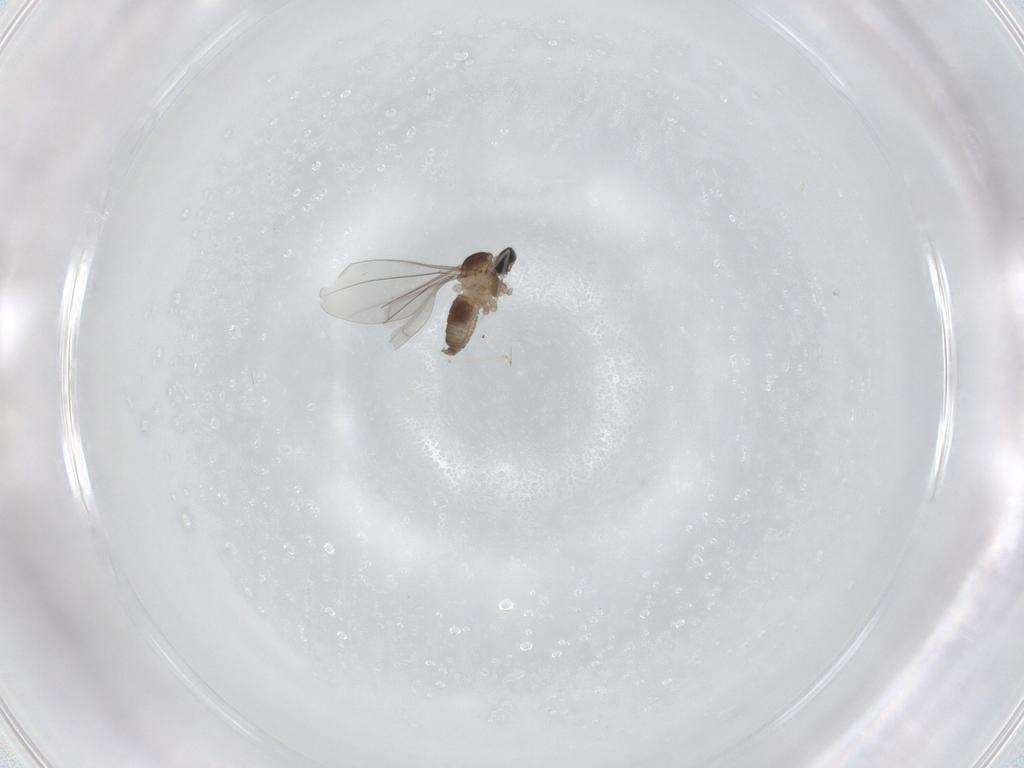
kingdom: Animalia
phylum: Arthropoda
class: Insecta
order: Diptera
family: Cecidomyiidae
